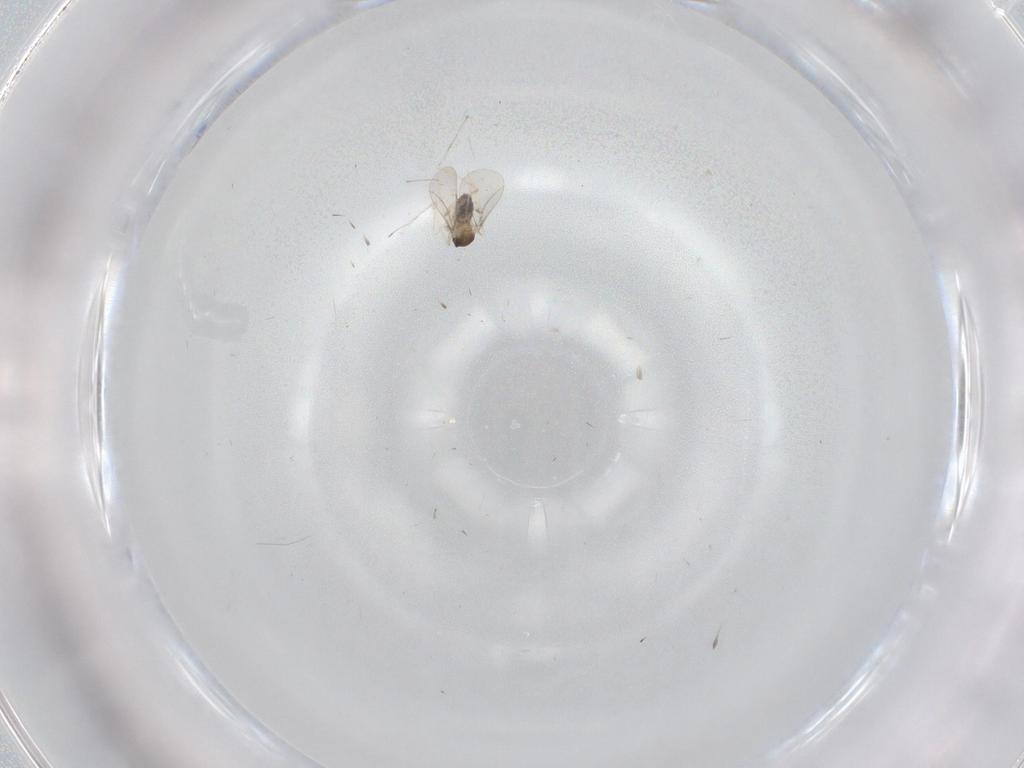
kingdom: Animalia
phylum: Arthropoda
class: Insecta
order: Diptera
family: Cecidomyiidae
